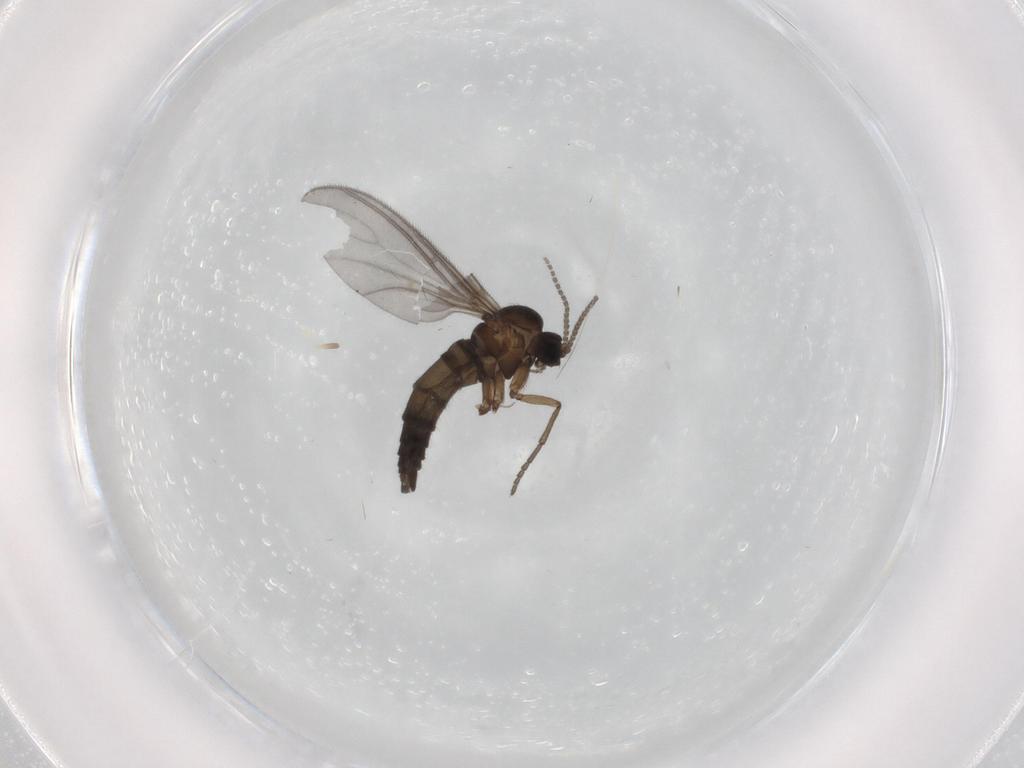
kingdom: Animalia
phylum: Arthropoda
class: Insecta
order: Diptera
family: Sciaridae
